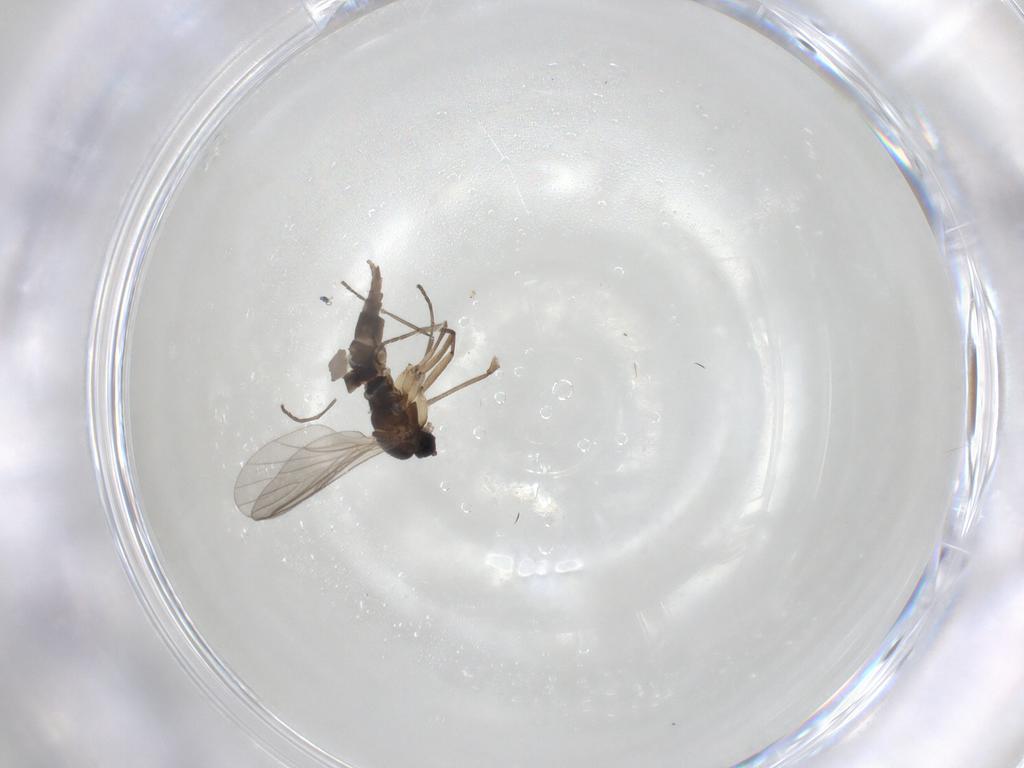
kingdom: Animalia
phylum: Arthropoda
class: Insecta
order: Diptera
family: Sciaridae
